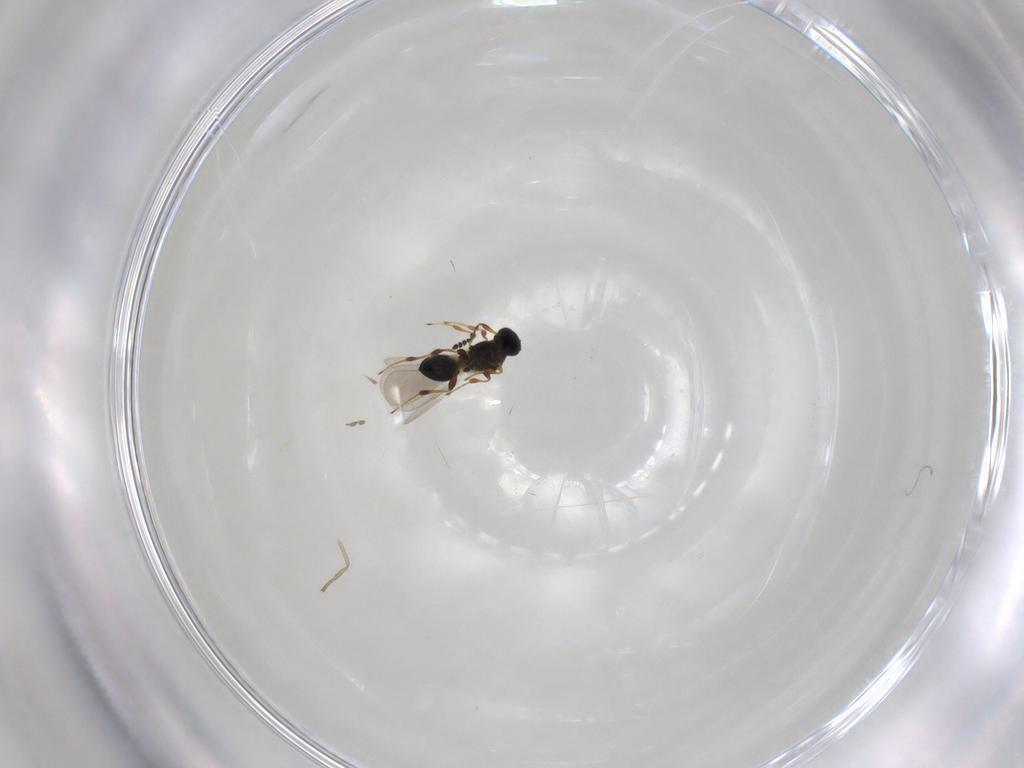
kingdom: Animalia
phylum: Arthropoda
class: Insecta
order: Hymenoptera
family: Platygastridae
